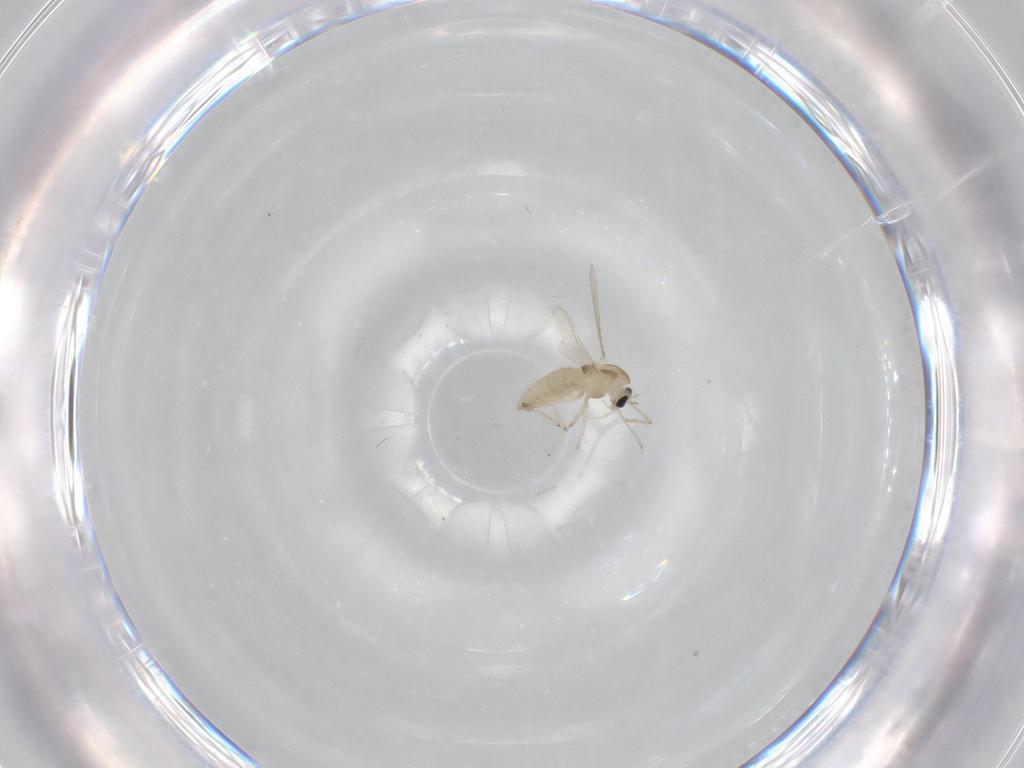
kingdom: Animalia
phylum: Arthropoda
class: Insecta
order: Diptera
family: Chironomidae
